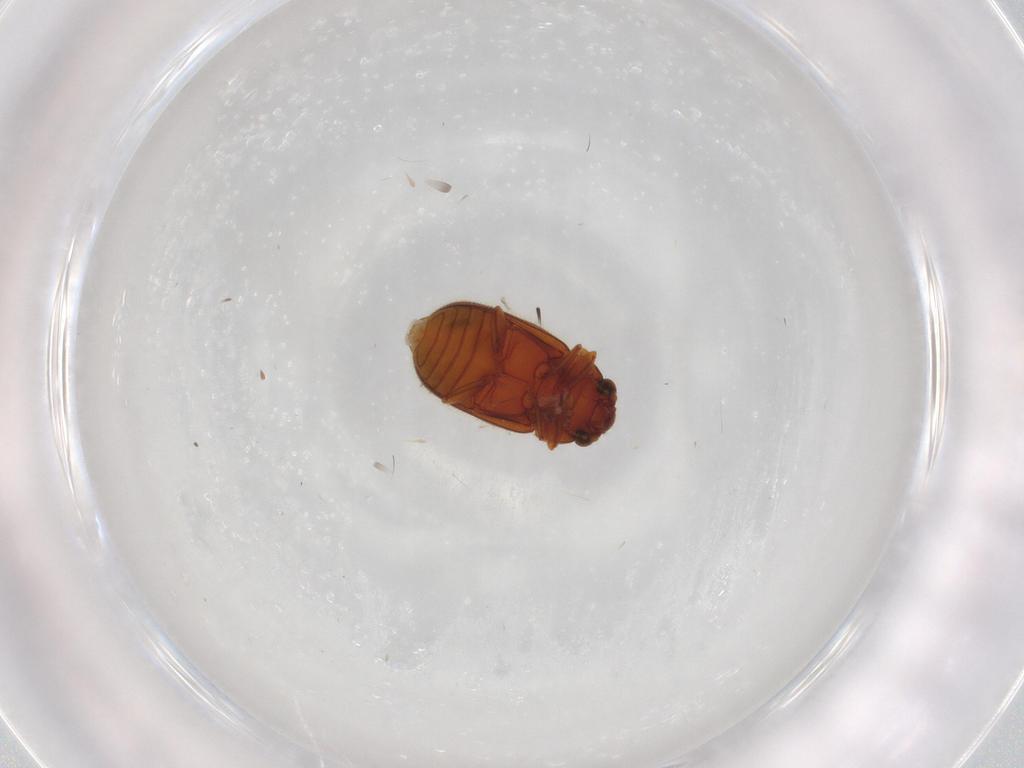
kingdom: Animalia
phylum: Arthropoda
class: Insecta
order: Coleoptera
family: Sphindidae
